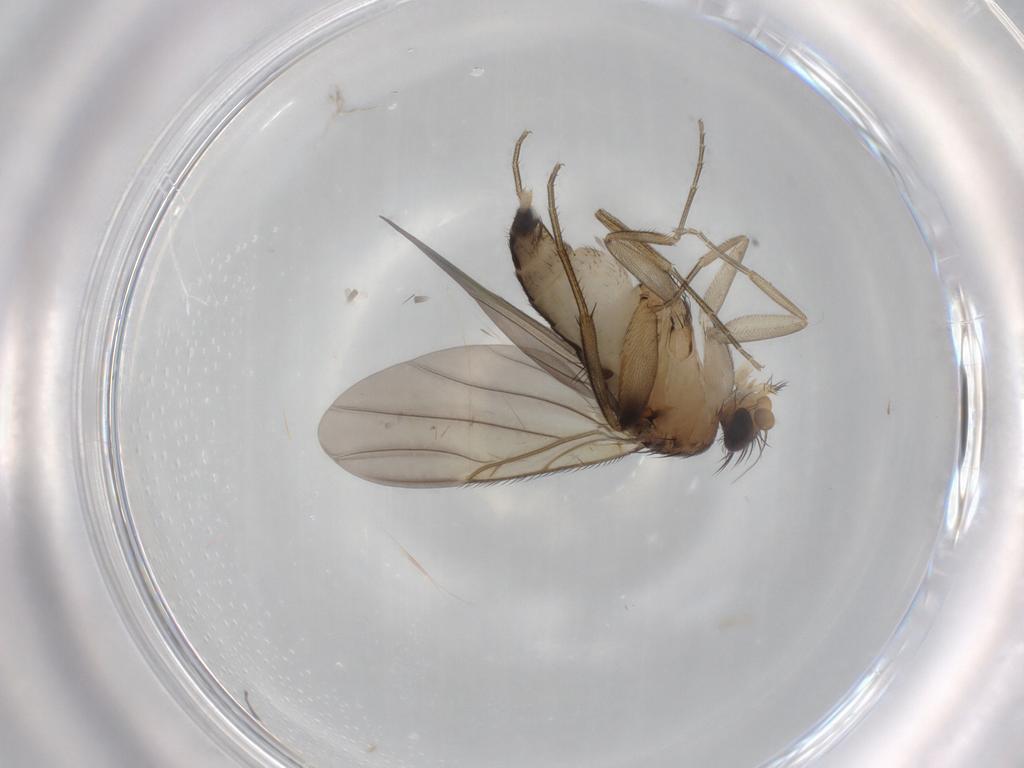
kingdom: Animalia
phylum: Arthropoda
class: Insecta
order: Diptera
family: Phoridae
